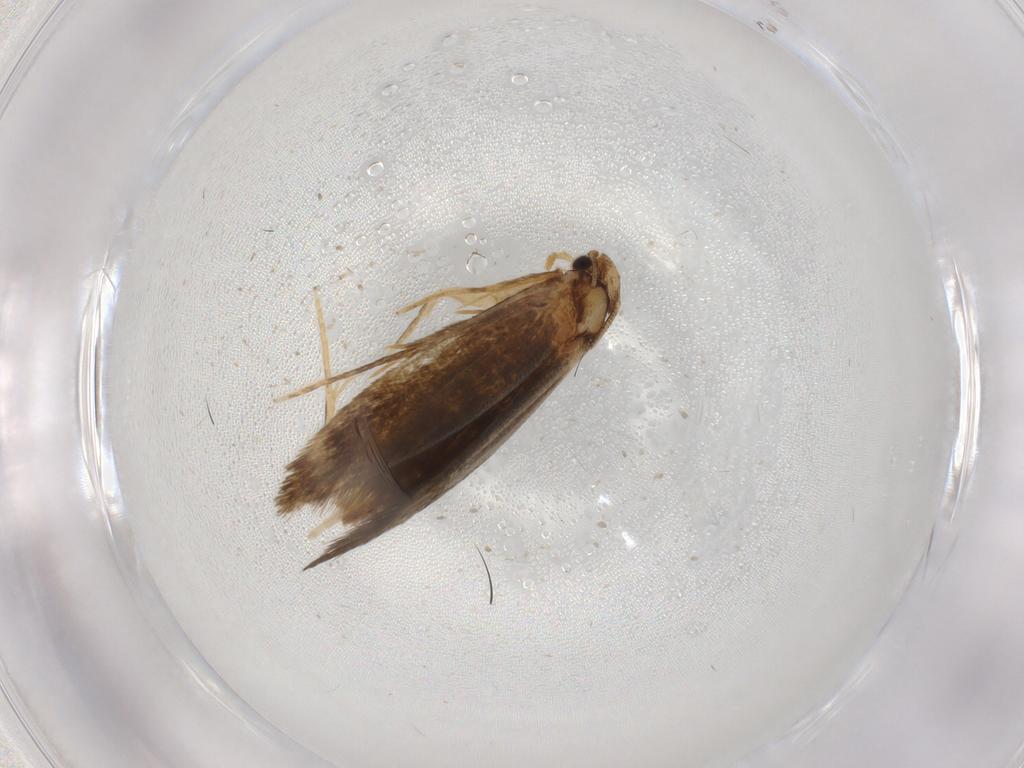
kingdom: Animalia
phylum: Arthropoda
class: Insecta
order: Lepidoptera
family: Tineidae
